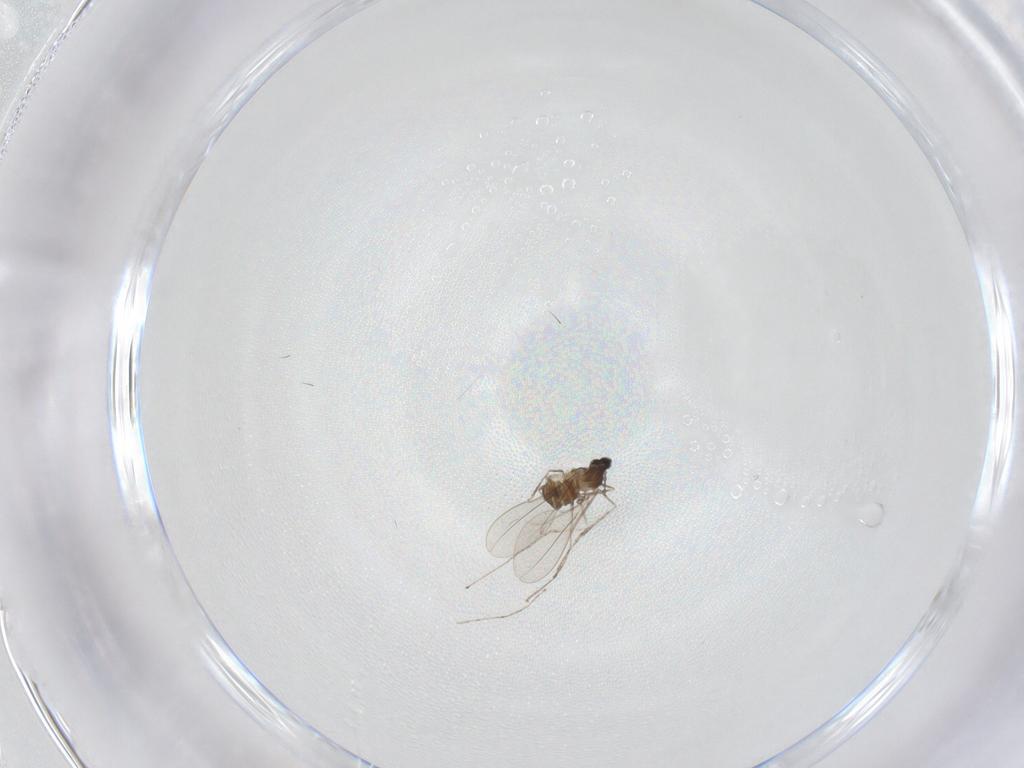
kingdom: Animalia
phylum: Arthropoda
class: Insecta
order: Diptera
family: Cecidomyiidae
